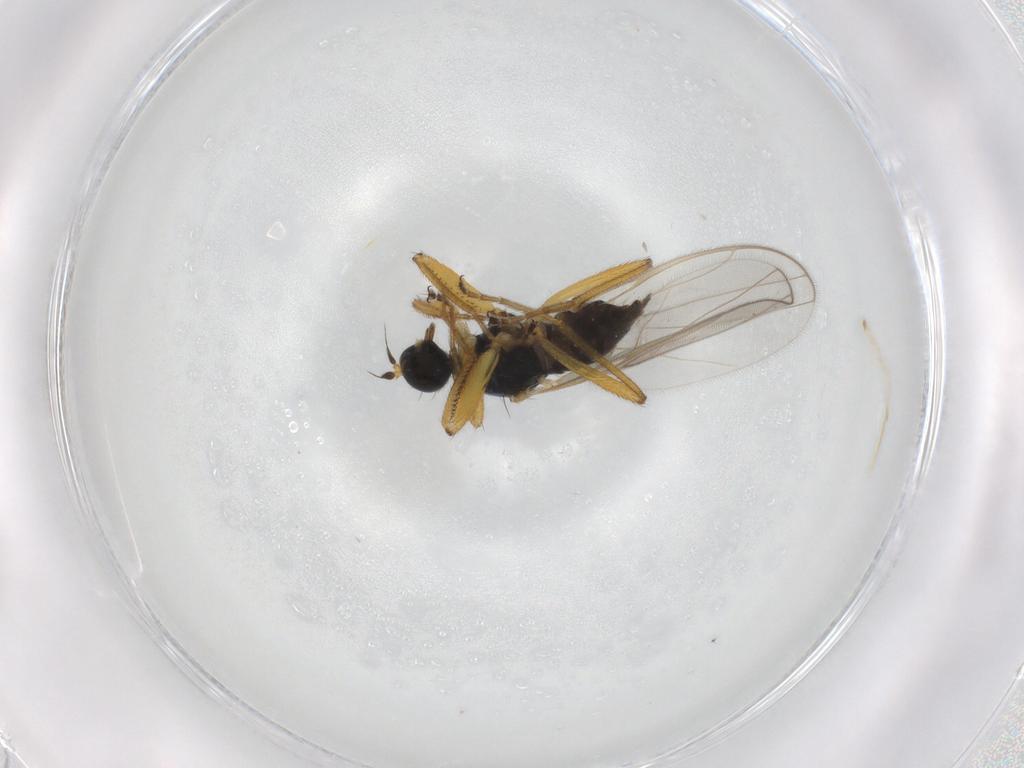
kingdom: Animalia
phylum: Arthropoda
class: Insecta
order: Diptera
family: Hybotidae
